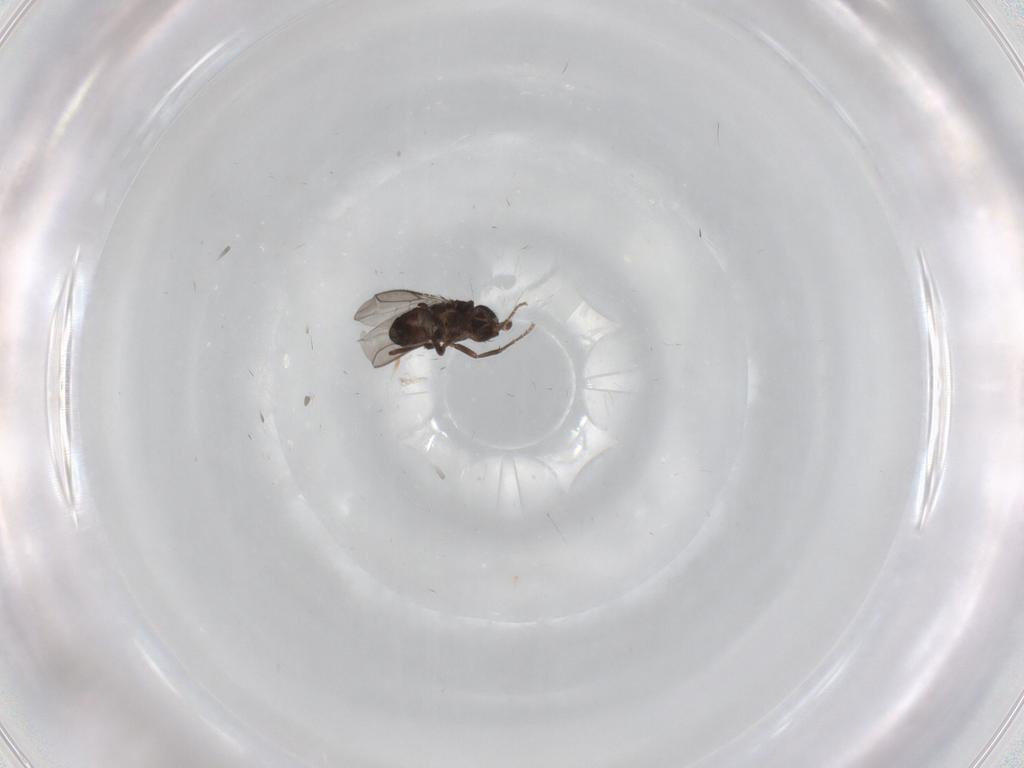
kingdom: Animalia
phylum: Arthropoda
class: Insecta
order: Diptera
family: Sphaeroceridae
